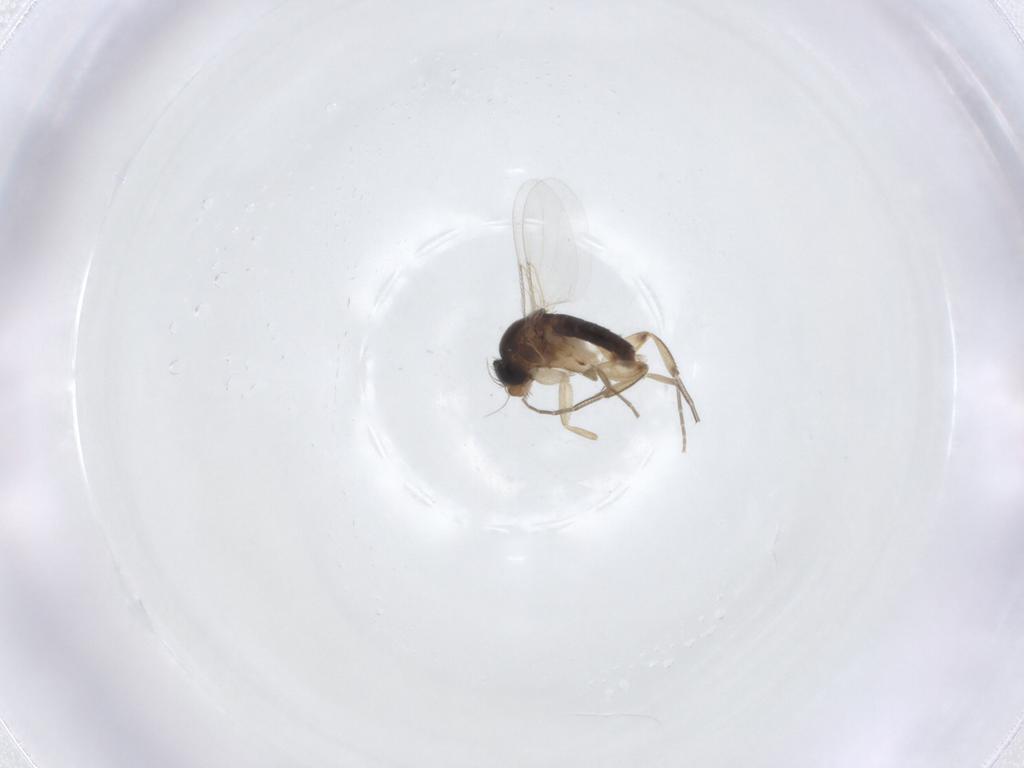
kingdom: Animalia
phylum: Arthropoda
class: Insecta
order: Diptera
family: Phoridae
